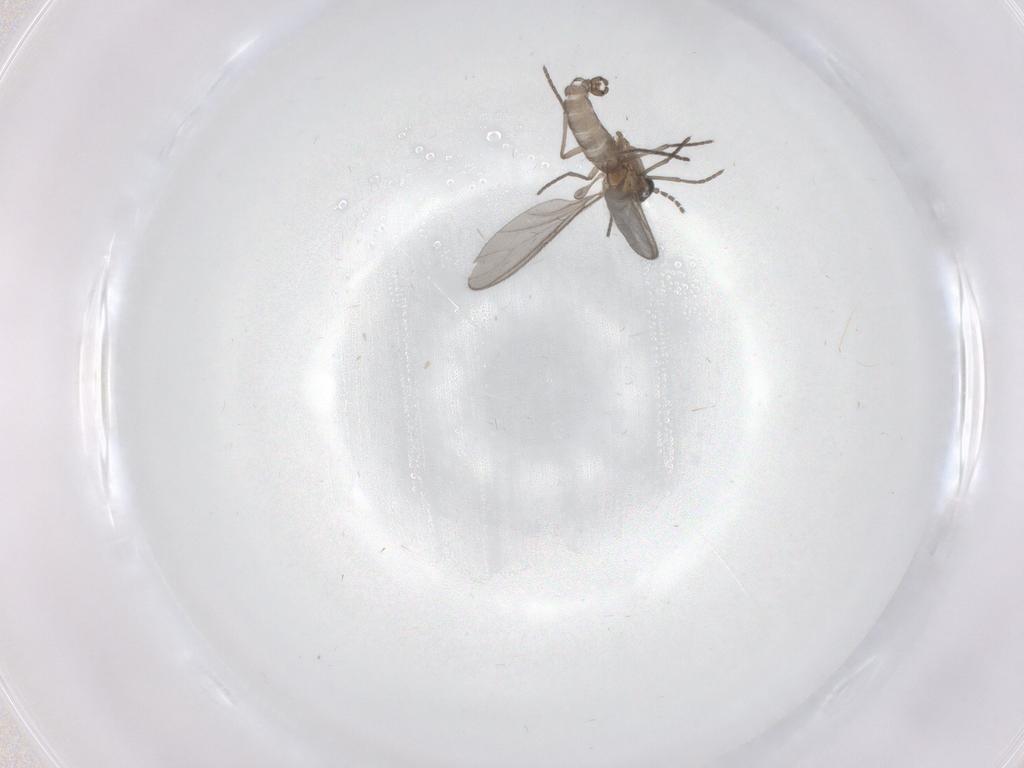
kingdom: Animalia
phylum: Arthropoda
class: Insecta
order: Diptera
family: Sciaridae
